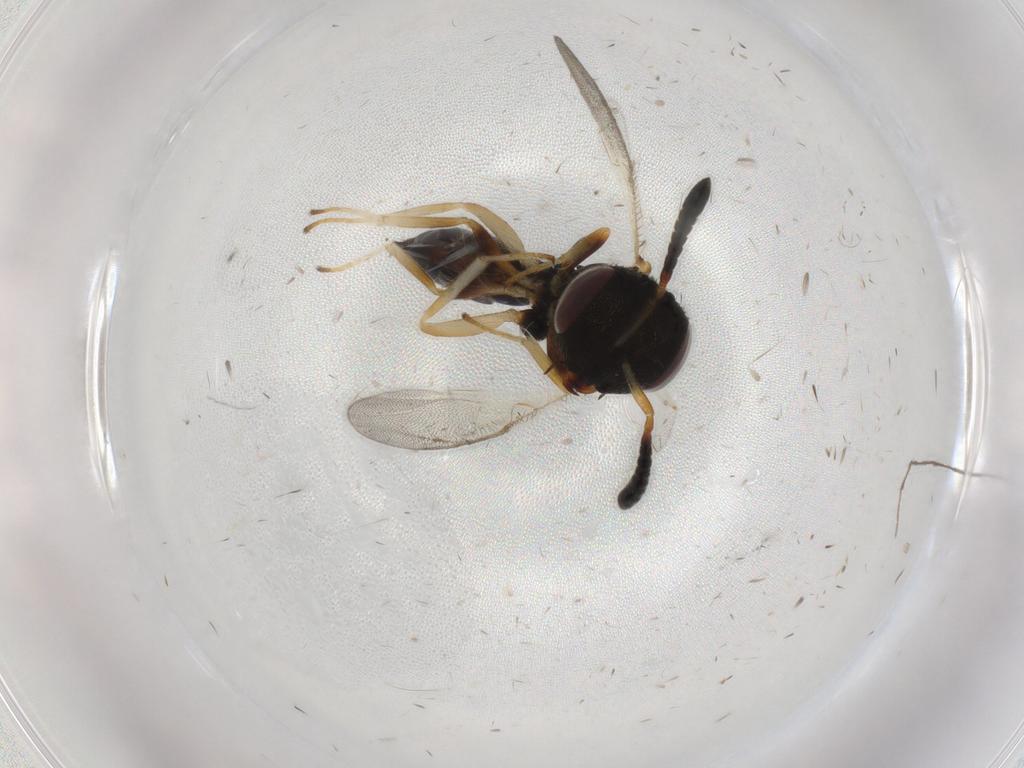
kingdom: Animalia
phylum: Arthropoda
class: Insecta
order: Hymenoptera
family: Pteromalidae
